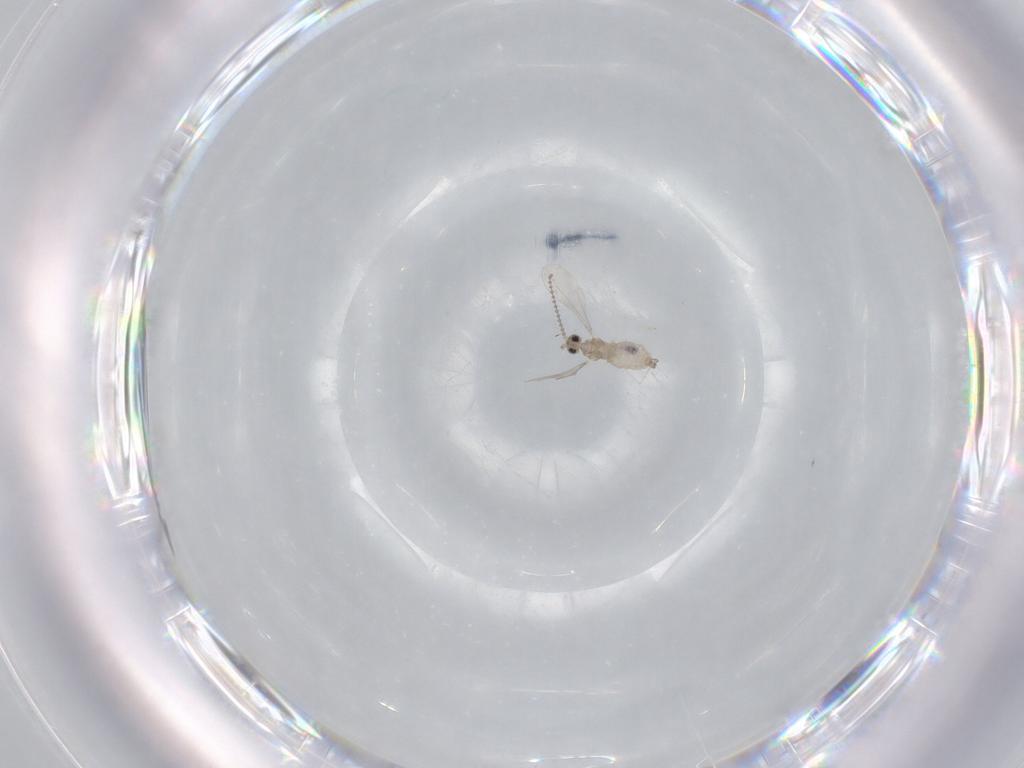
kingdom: Animalia
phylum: Arthropoda
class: Insecta
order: Diptera
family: Cecidomyiidae
